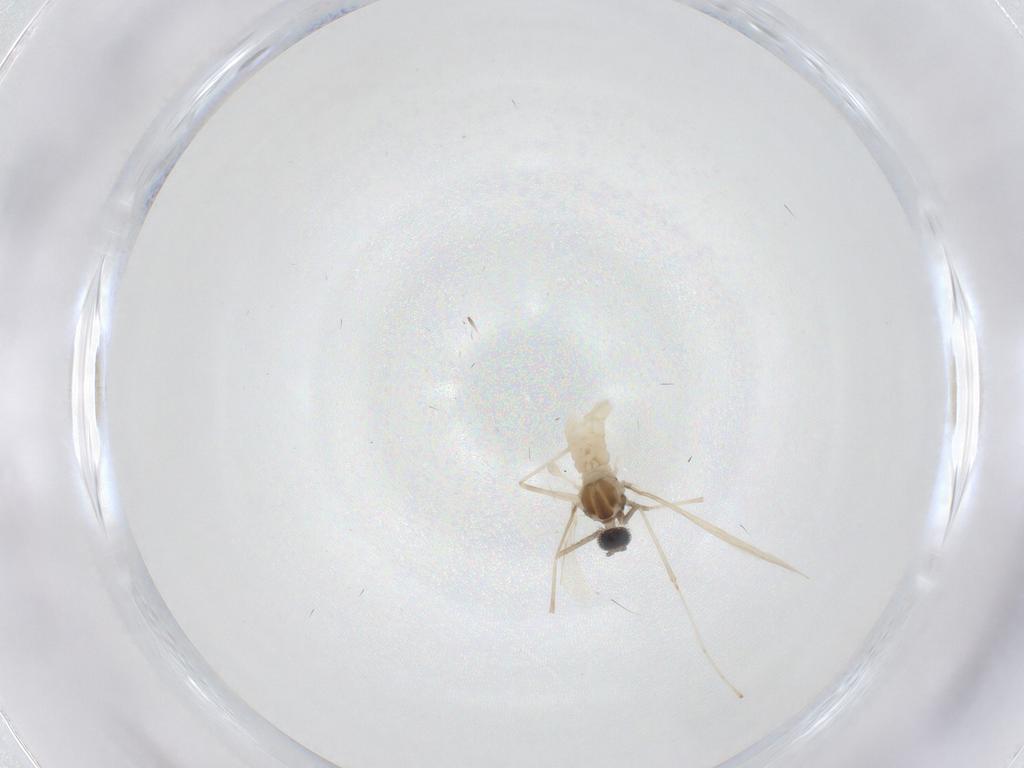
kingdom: Animalia
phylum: Arthropoda
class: Insecta
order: Diptera
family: Cecidomyiidae
